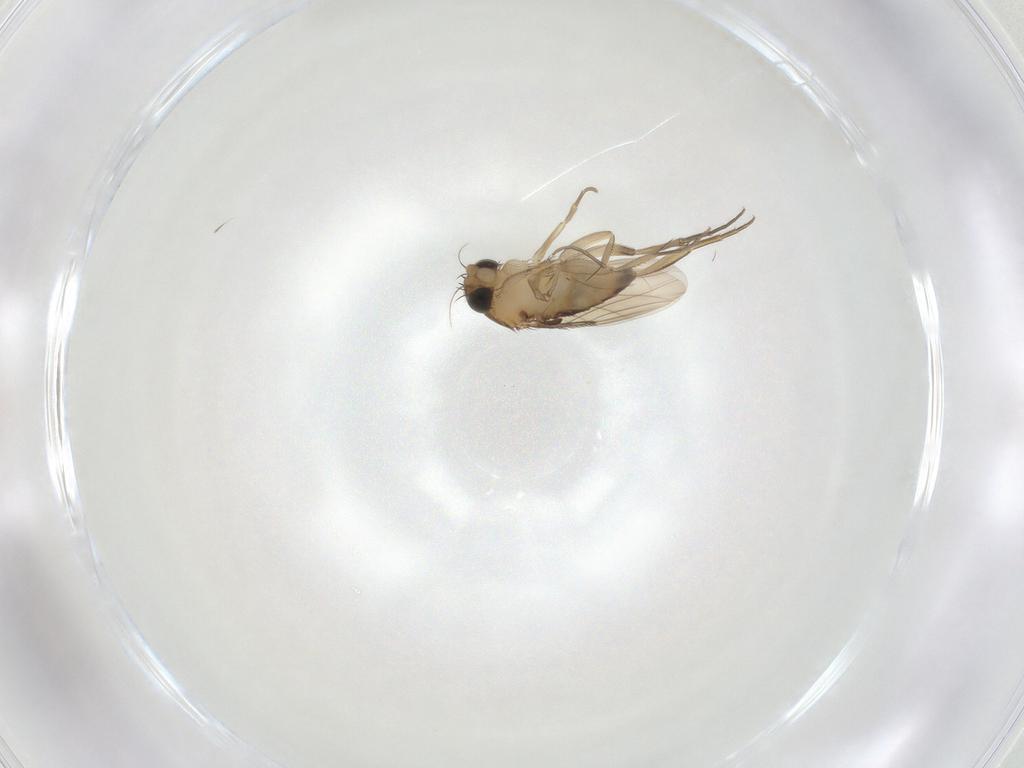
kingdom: Animalia
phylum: Arthropoda
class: Insecta
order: Diptera
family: Phoridae
